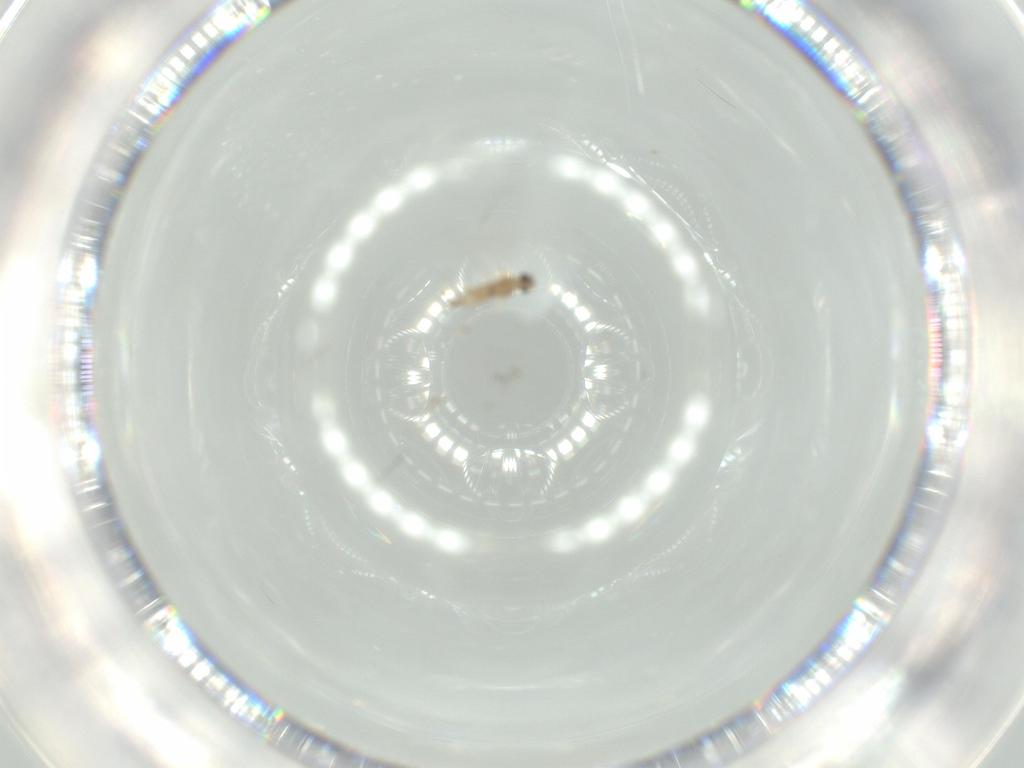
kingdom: Animalia
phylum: Arthropoda
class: Insecta
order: Diptera
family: Cecidomyiidae
